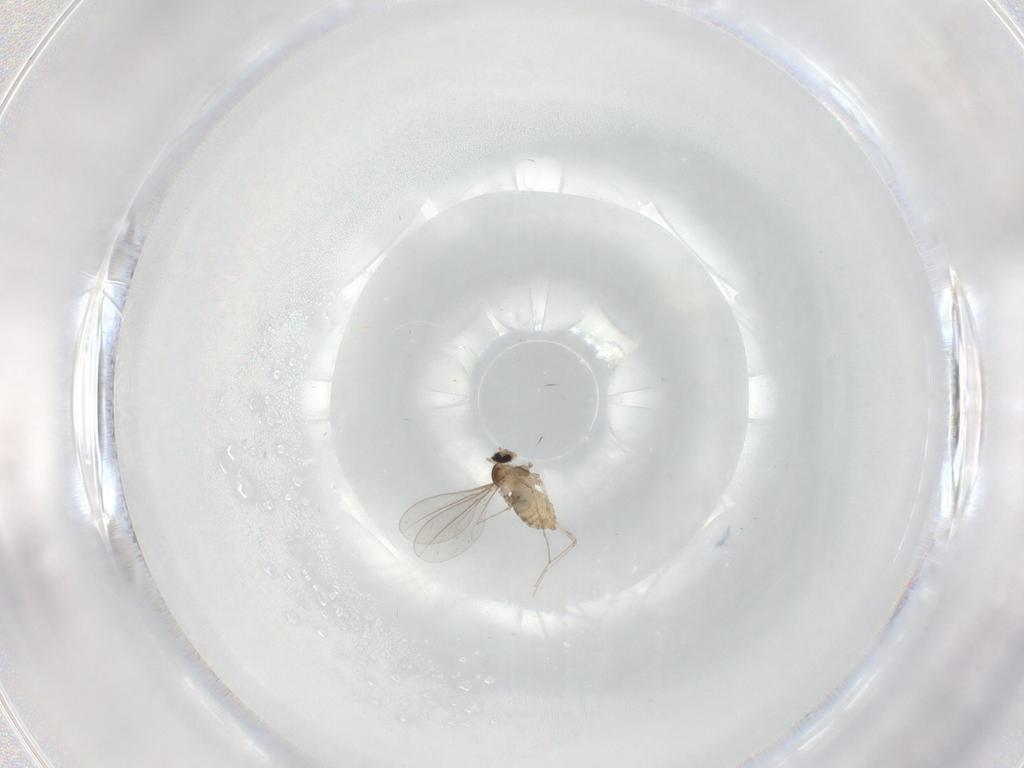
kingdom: Animalia
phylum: Arthropoda
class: Insecta
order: Diptera
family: Cecidomyiidae
